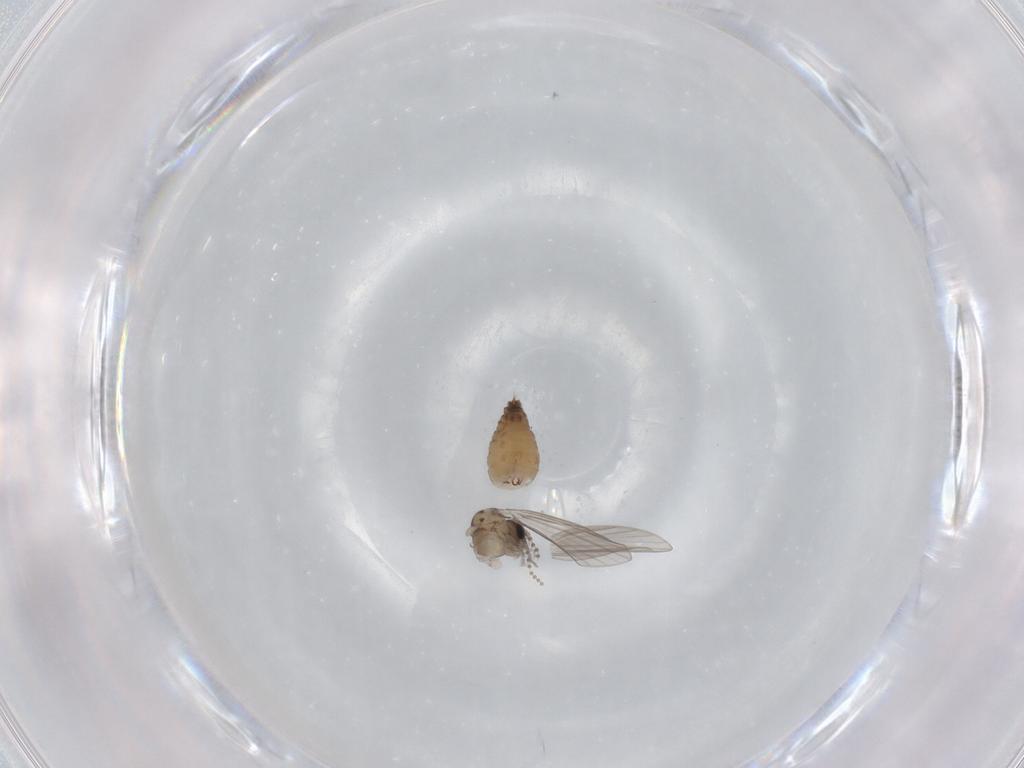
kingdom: Animalia
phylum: Arthropoda
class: Insecta
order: Diptera
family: Psychodidae
